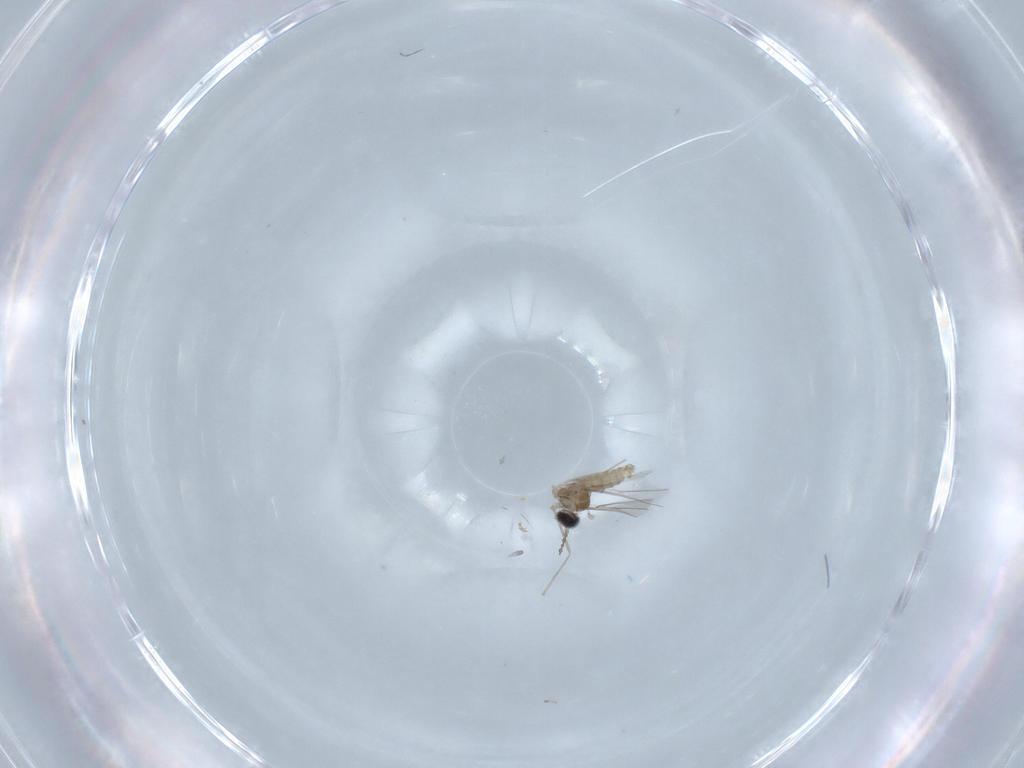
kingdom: Animalia
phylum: Arthropoda
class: Insecta
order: Diptera
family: Cecidomyiidae
